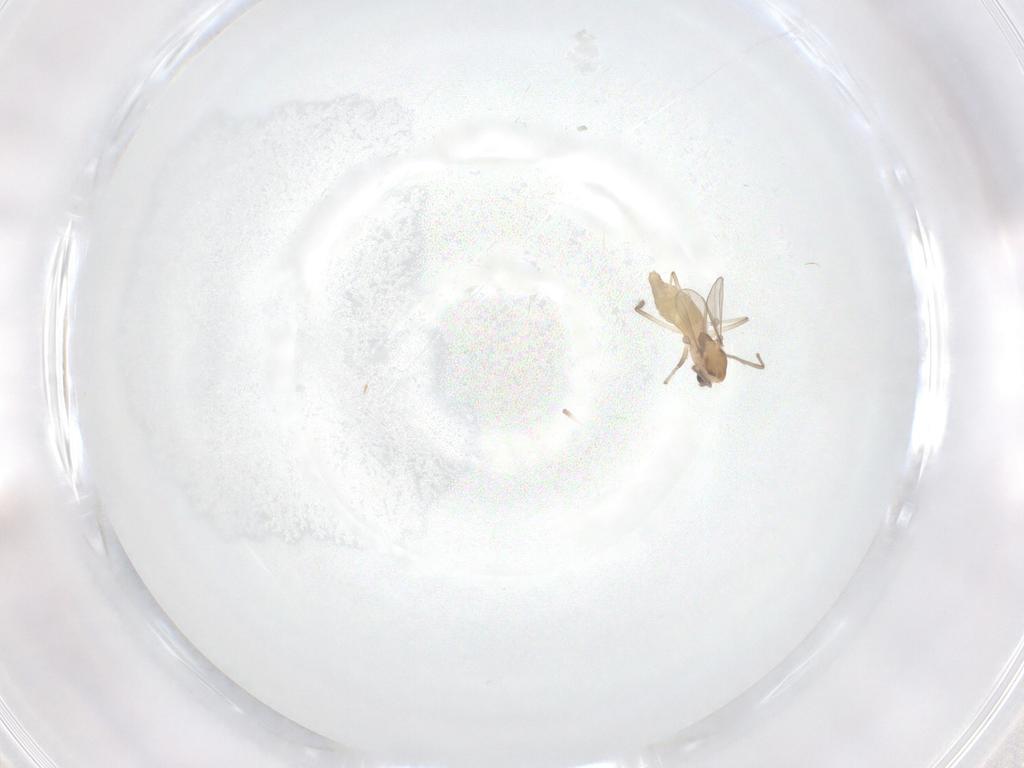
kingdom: Animalia
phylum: Arthropoda
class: Insecta
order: Diptera
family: Chironomidae
